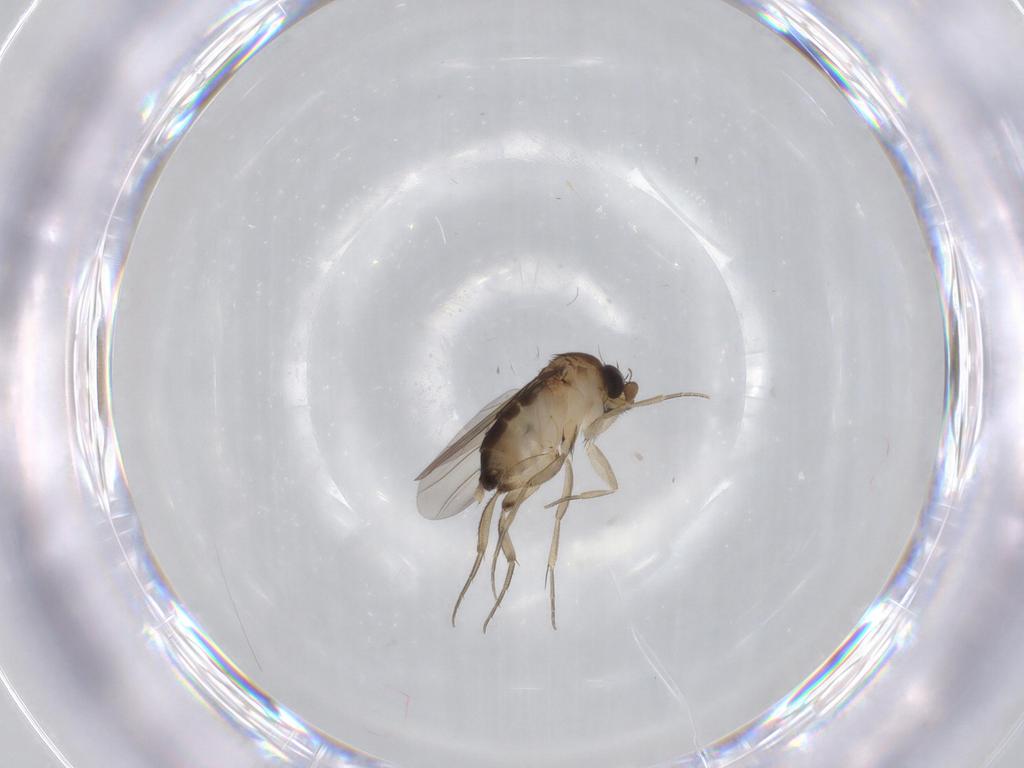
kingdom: Animalia
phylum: Arthropoda
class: Insecta
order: Diptera
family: Phoridae
